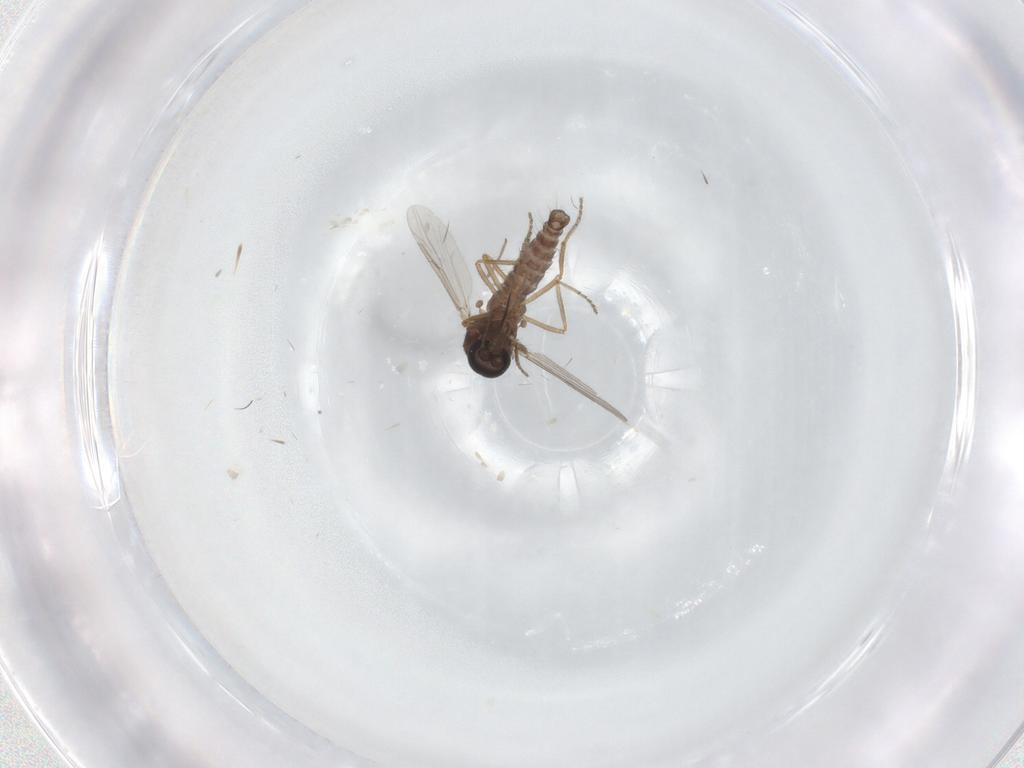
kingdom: Animalia
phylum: Arthropoda
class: Insecta
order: Diptera
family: Ceratopogonidae
